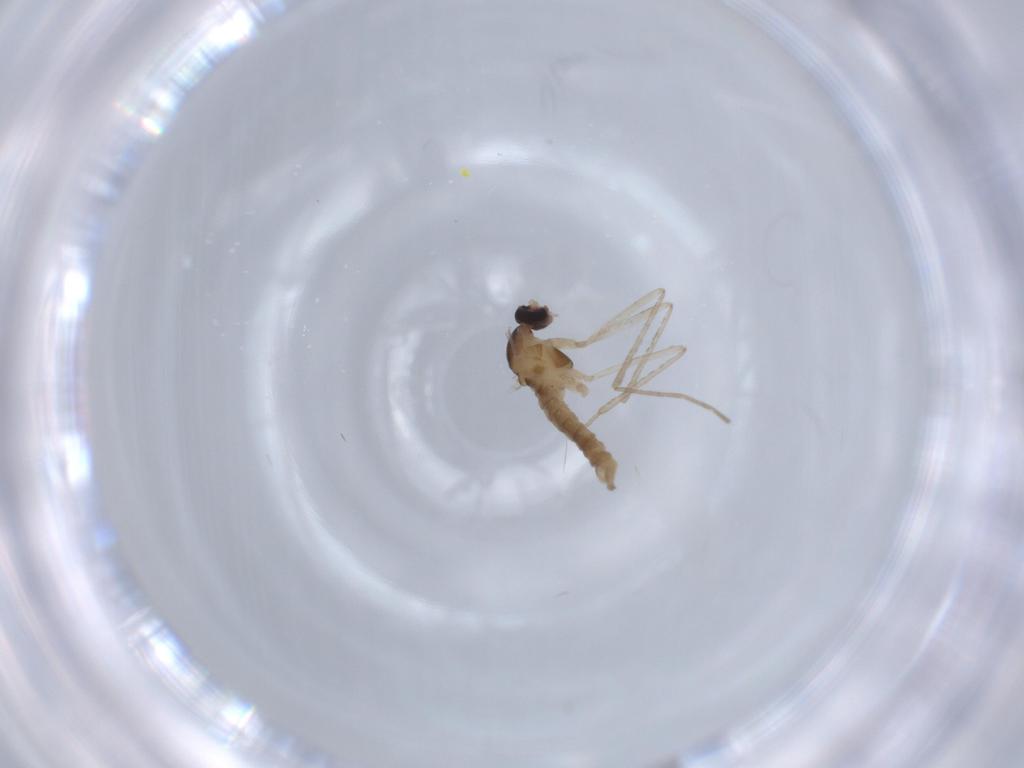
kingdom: Animalia
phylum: Arthropoda
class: Insecta
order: Diptera
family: Cecidomyiidae
